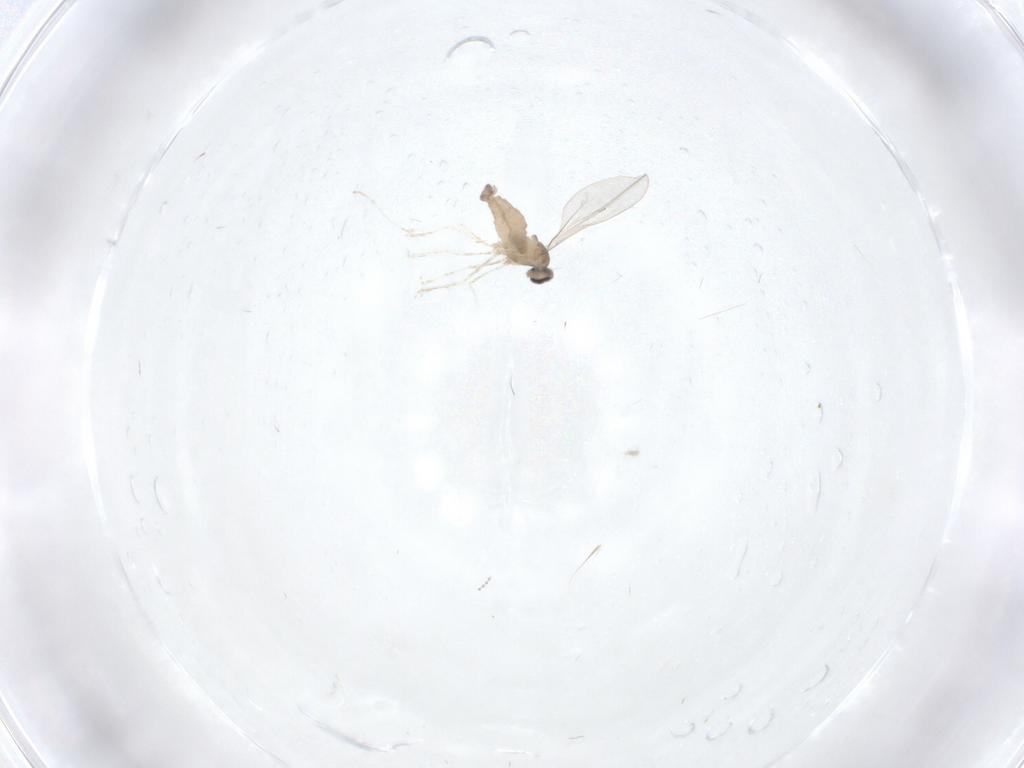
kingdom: Animalia
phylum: Arthropoda
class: Insecta
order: Diptera
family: Cecidomyiidae
